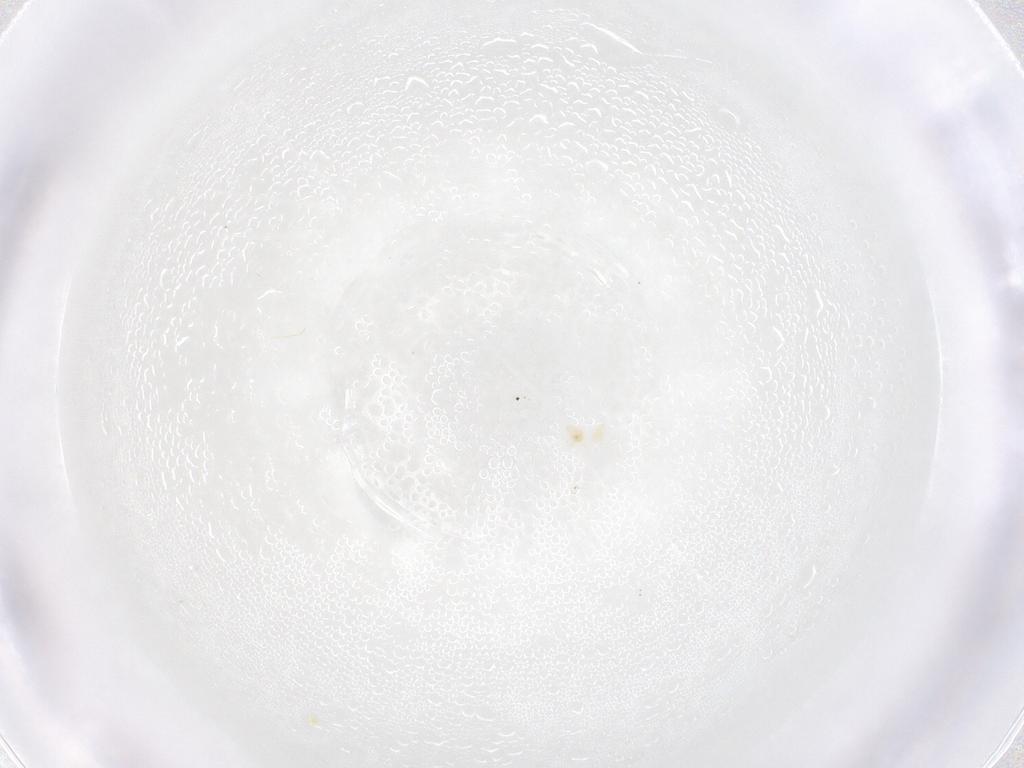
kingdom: Animalia
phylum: Arthropoda
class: Arachnida
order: Trombidiformes
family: Eupodidae
